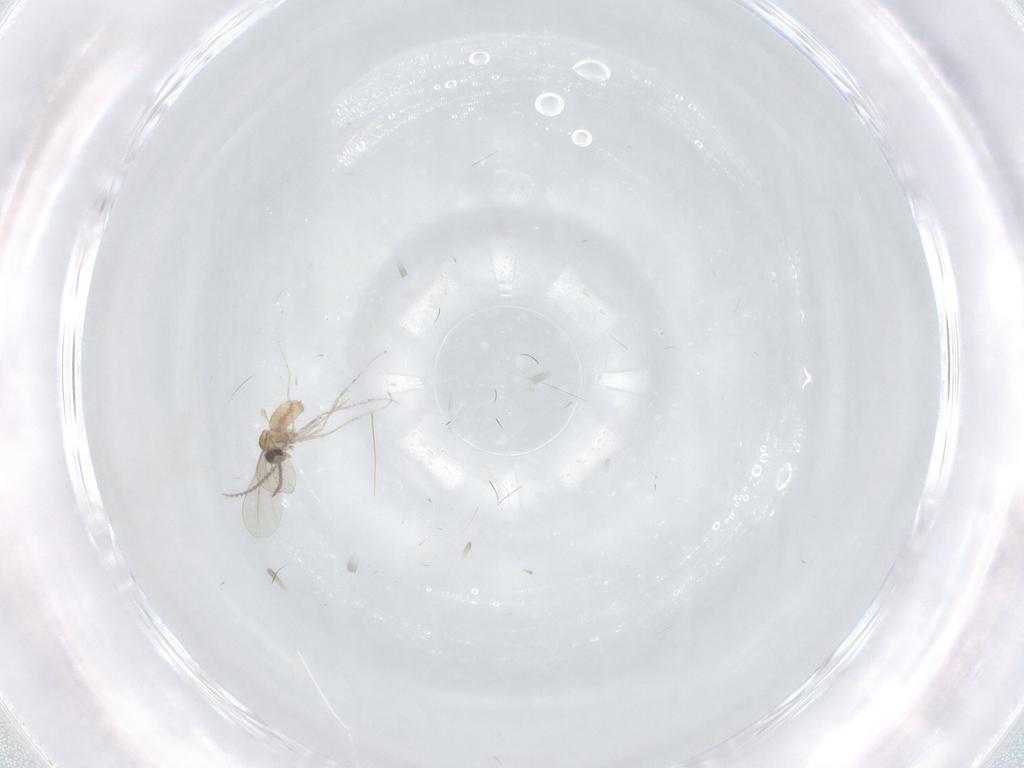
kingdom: Animalia
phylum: Arthropoda
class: Insecta
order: Diptera
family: Cecidomyiidae
